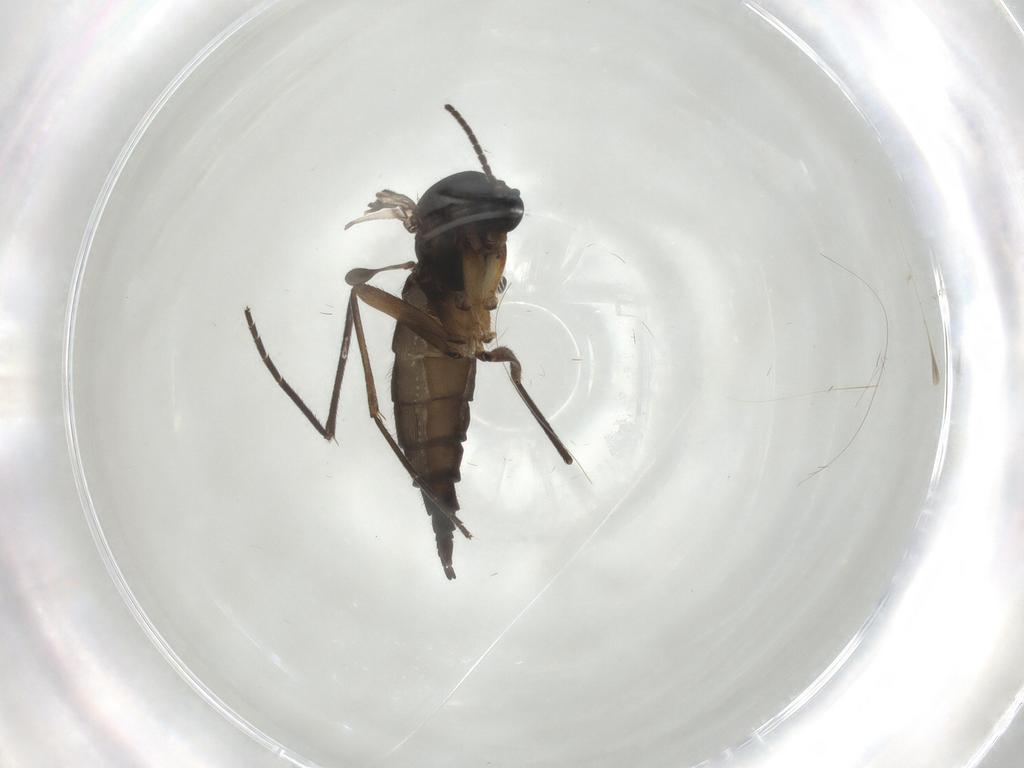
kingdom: Animalia
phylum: Arthropoda
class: Insecta
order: Diptera
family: Sciaridae
